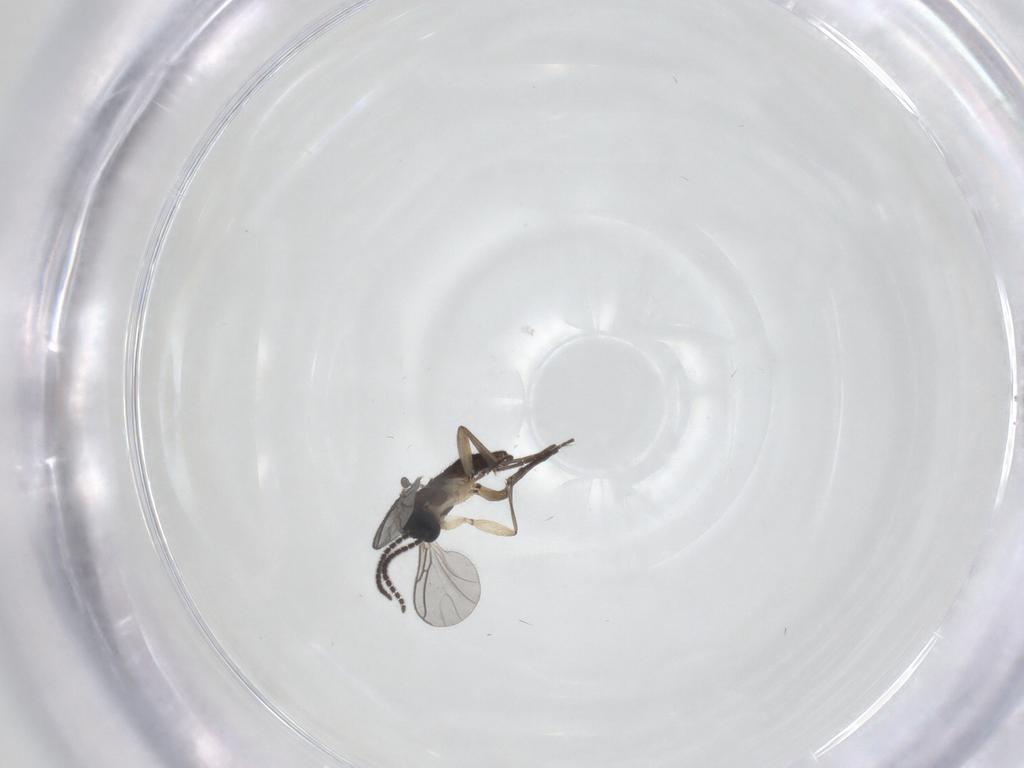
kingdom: Animalia
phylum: Arthropoda
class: Insecta
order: Diptera
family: Sciaridae
